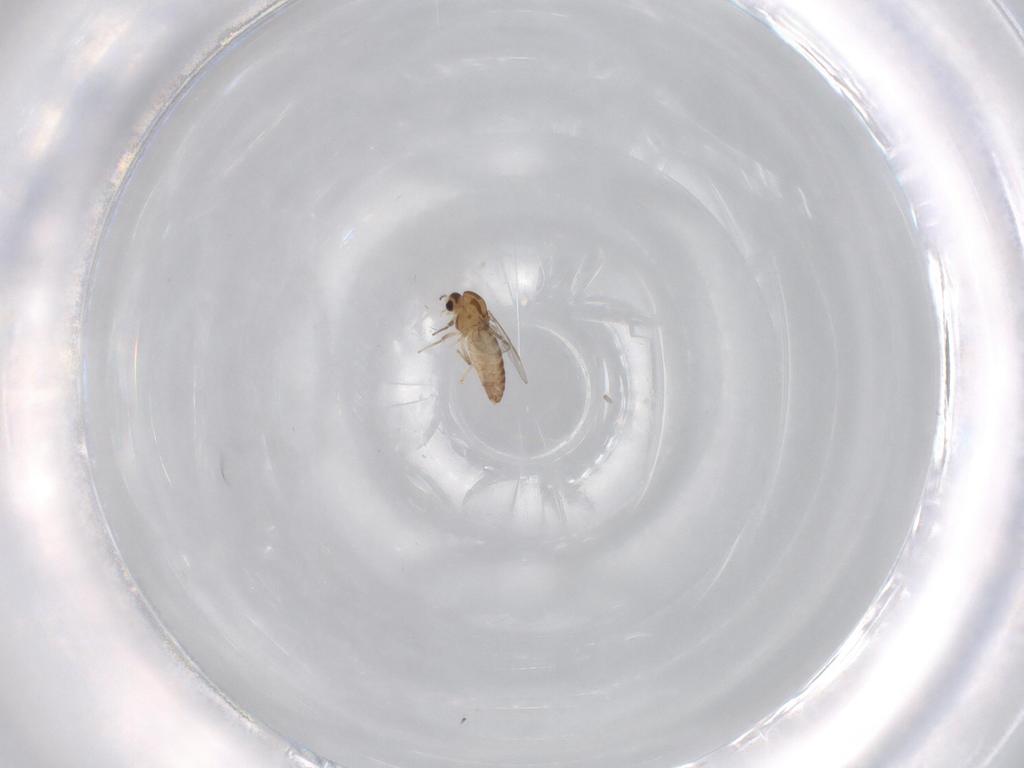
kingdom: Animalia
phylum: Arthropoda
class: Insecta
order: Diptera
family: Chironomidae
